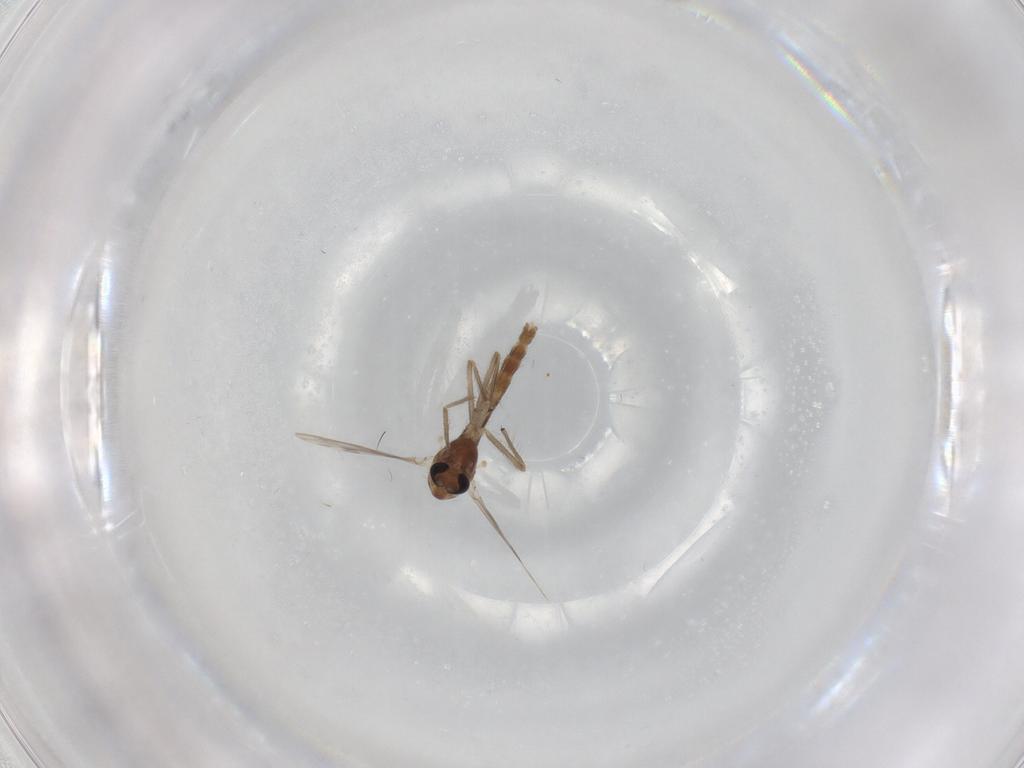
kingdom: Animalia
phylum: Arthropoda
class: Insecta
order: Diptera
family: Chironomidae
